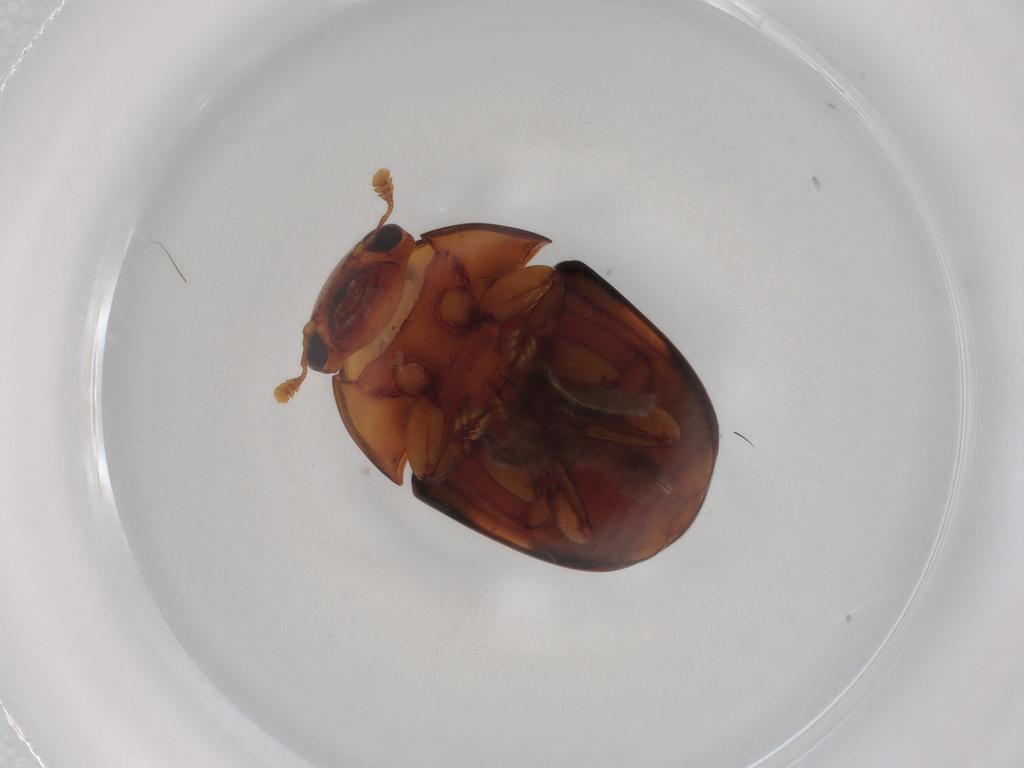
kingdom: Animalia
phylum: Arthropoda
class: Insecta
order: Coleoptera
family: Nitidulidae
